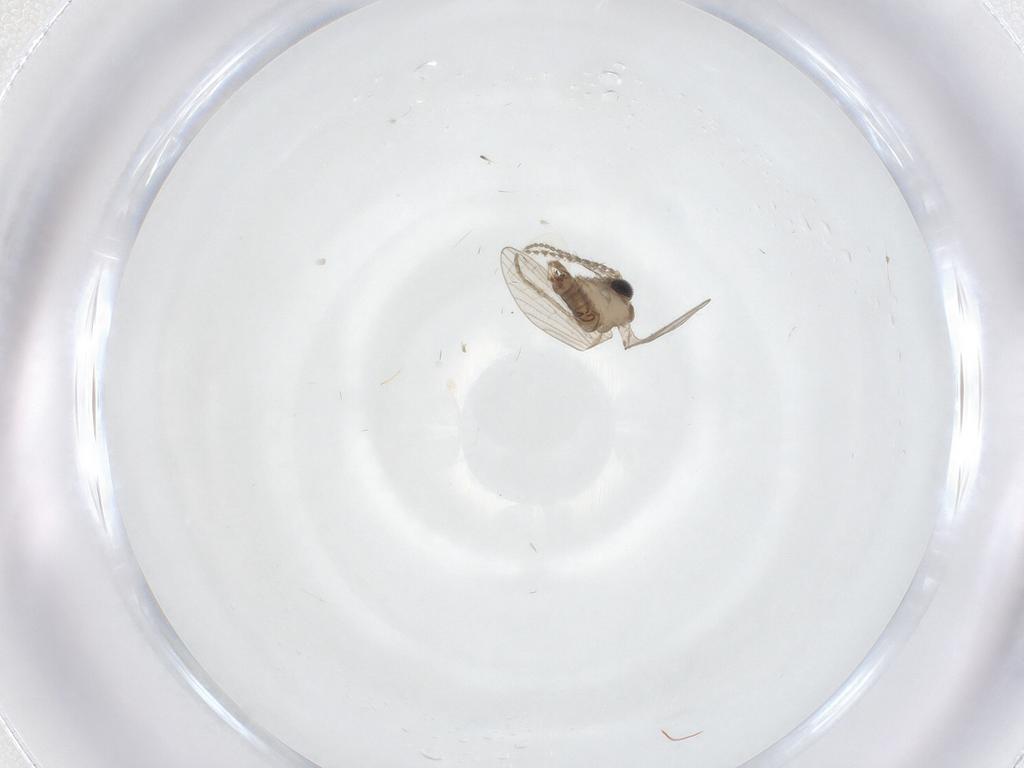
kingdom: Animalia
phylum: Arthropoda
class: Insecta
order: Diptera
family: Cecidomyiidae
